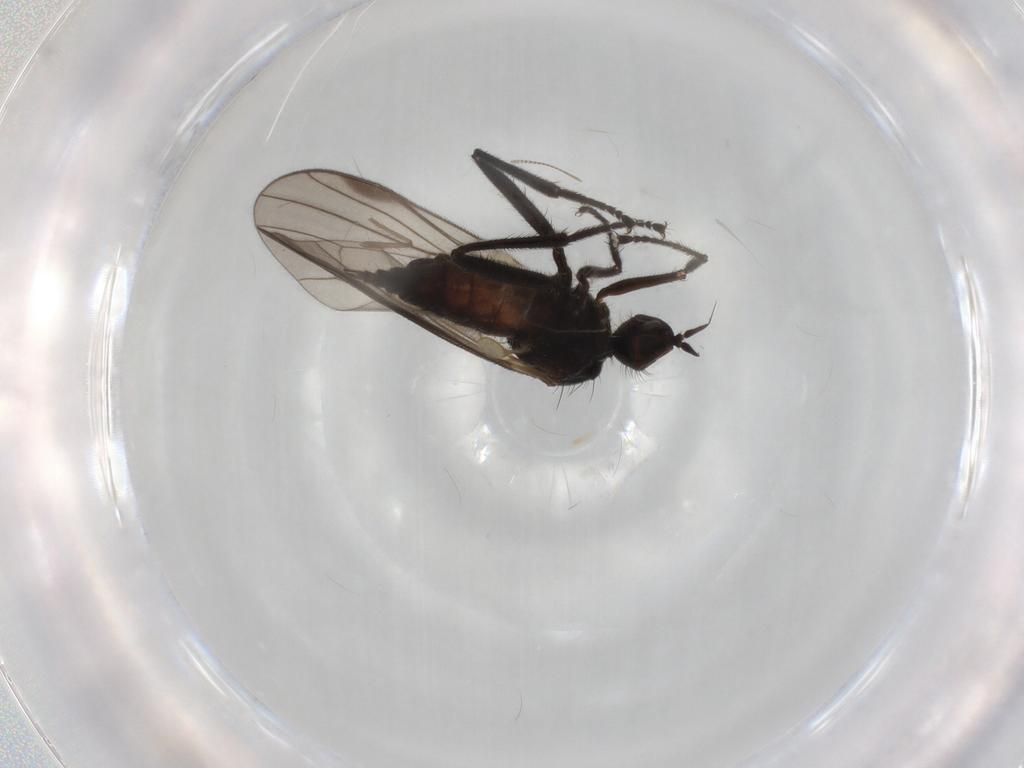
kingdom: Animalia
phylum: Arthropoda
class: Insecta
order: Diptera
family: Hybotidae
